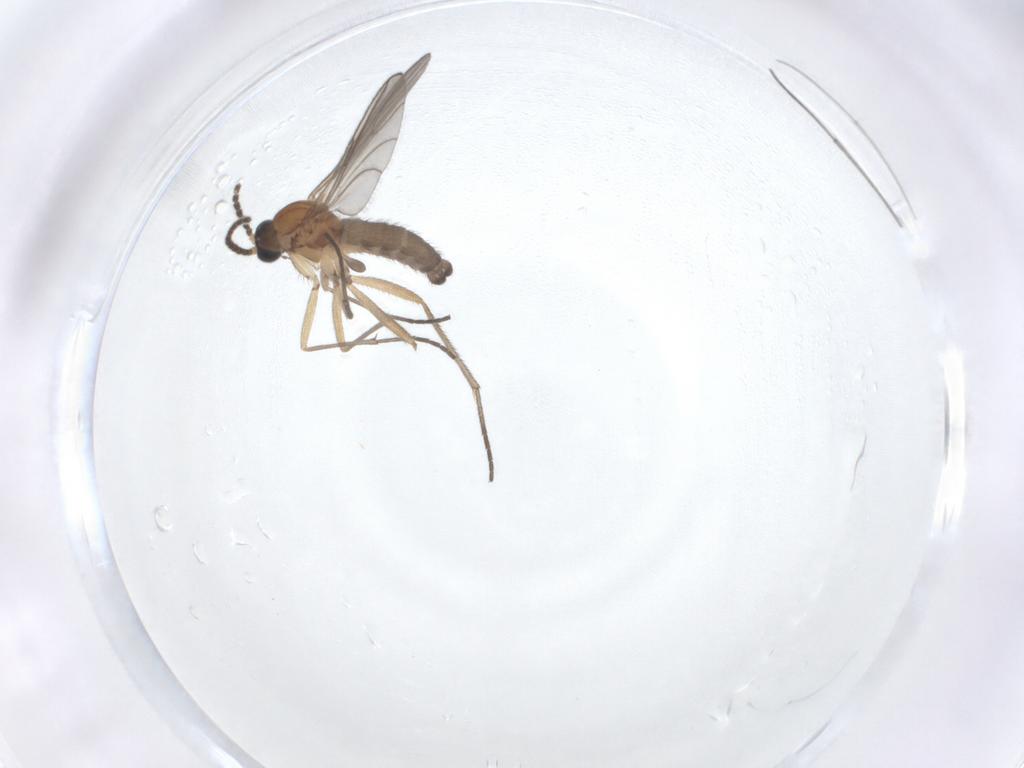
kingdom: Animalia
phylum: Arthropoda
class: Insecta
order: Diptera
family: Sciaridae
